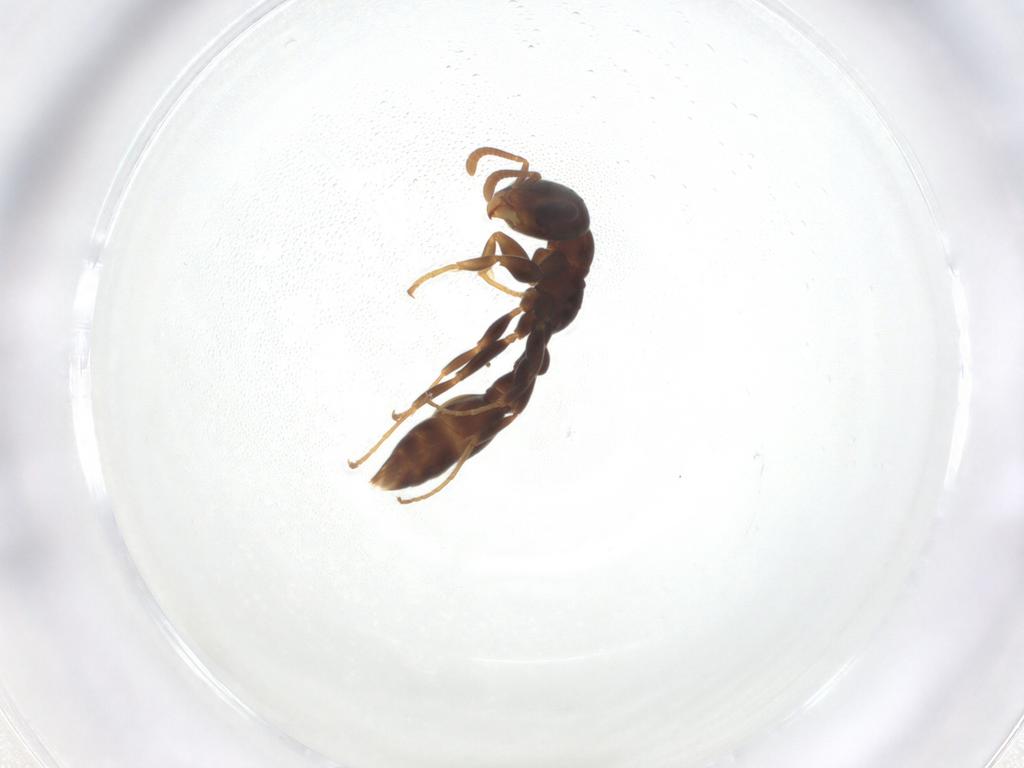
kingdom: Animalia
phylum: Arthropoda
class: Insecta
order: Hymenoptera
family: Formicidae
